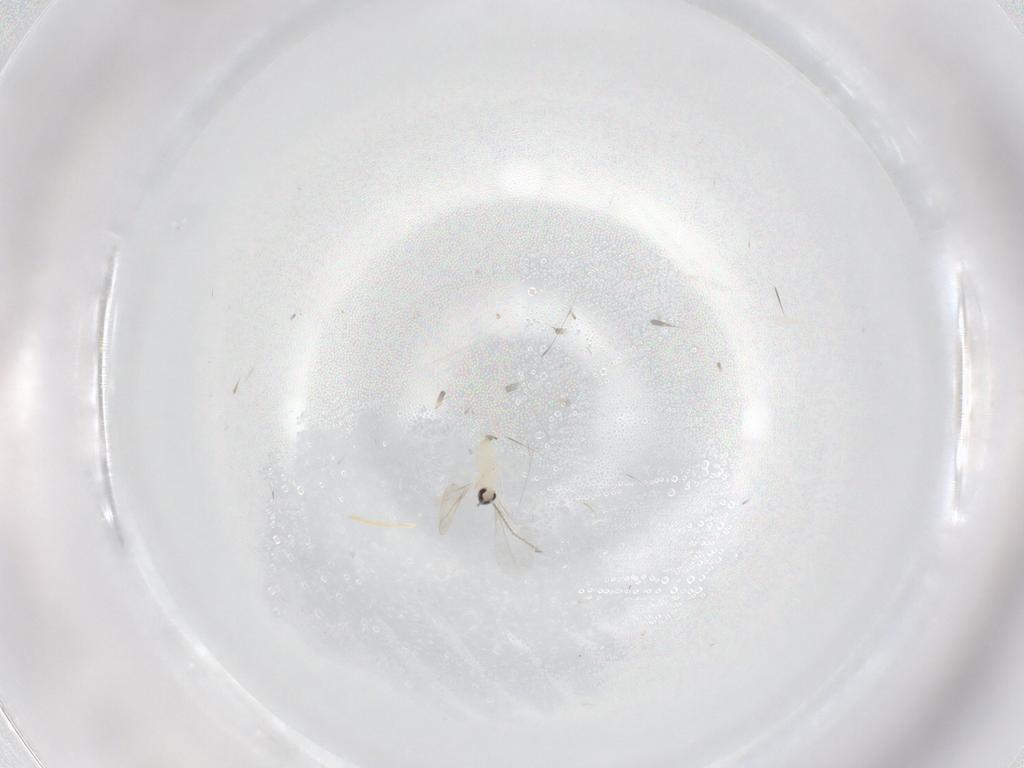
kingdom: Animalia
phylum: Arthropoda
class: Insecta
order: Diptera
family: Cecidomyiidae
